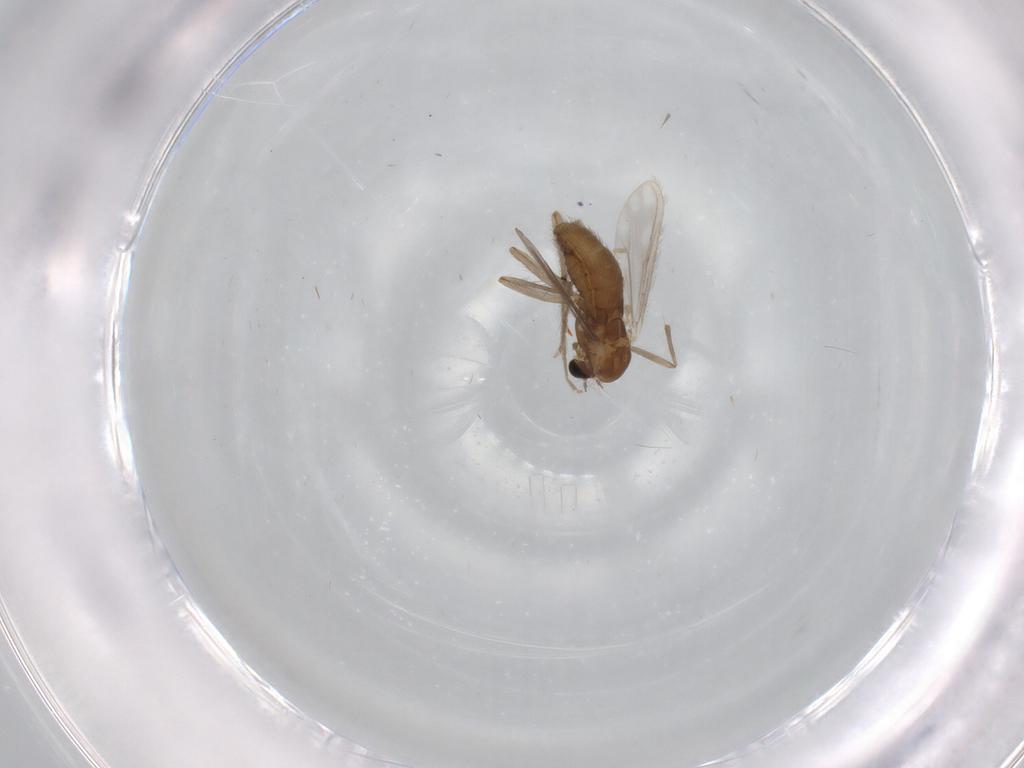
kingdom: Animalia
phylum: Arthropoda
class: Insecta
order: Diptera
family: Chironomidae
